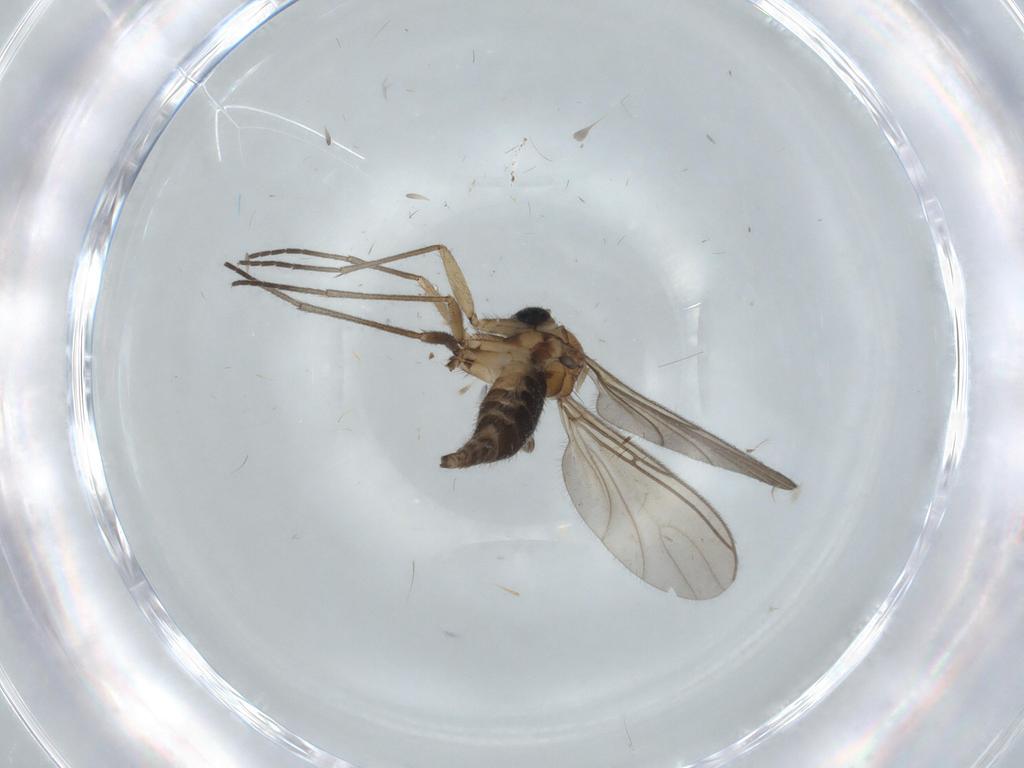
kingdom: Animalia
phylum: Arthropoda
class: Insecta
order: Diptera
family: Sciaridae
